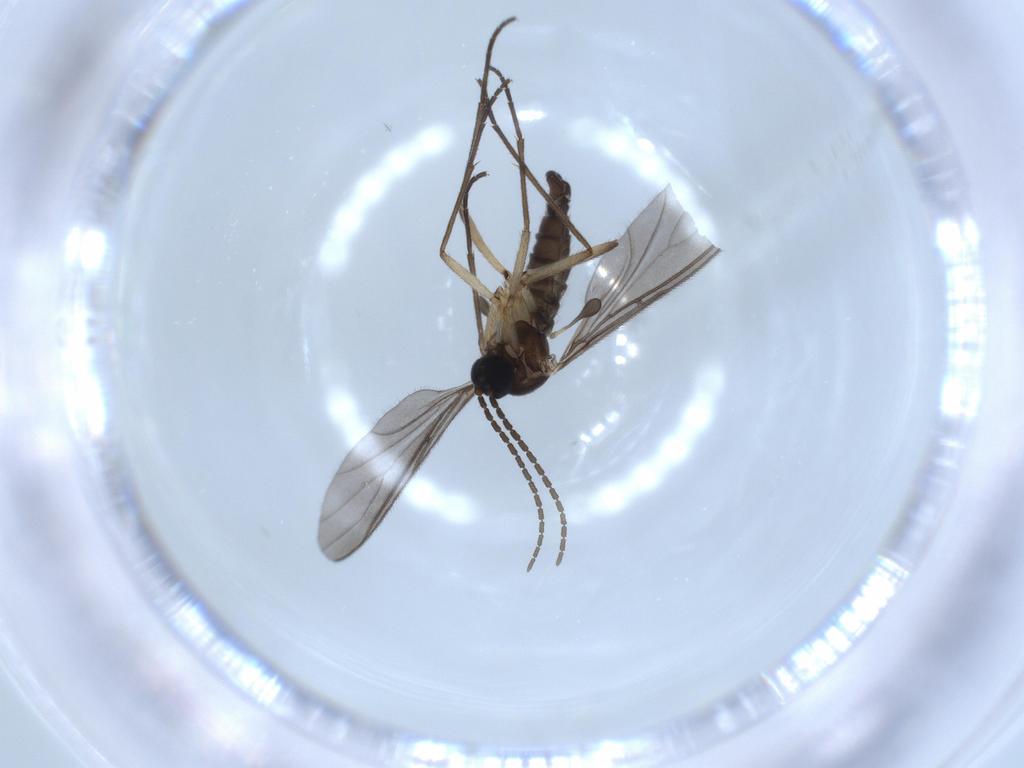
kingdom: Animalia
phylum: Arthropoda
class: Insecta
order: Diptera
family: Sciaridae
